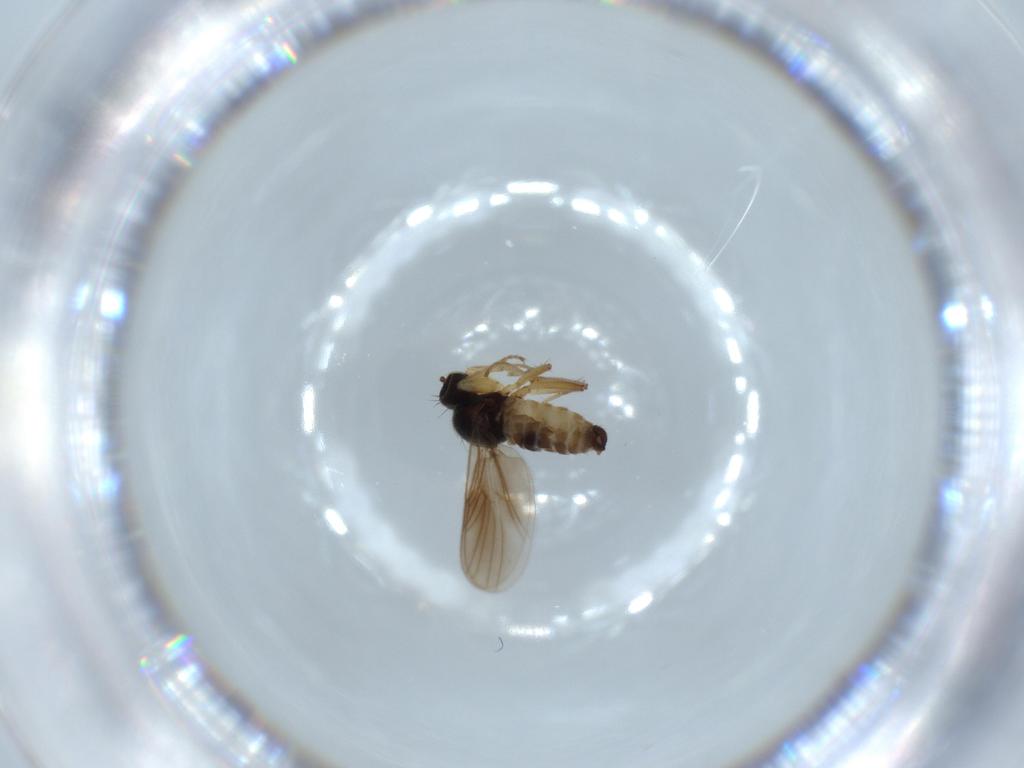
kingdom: Animalia
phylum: Arthropoda
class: Insecta
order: Diptera
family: Hybotidae
